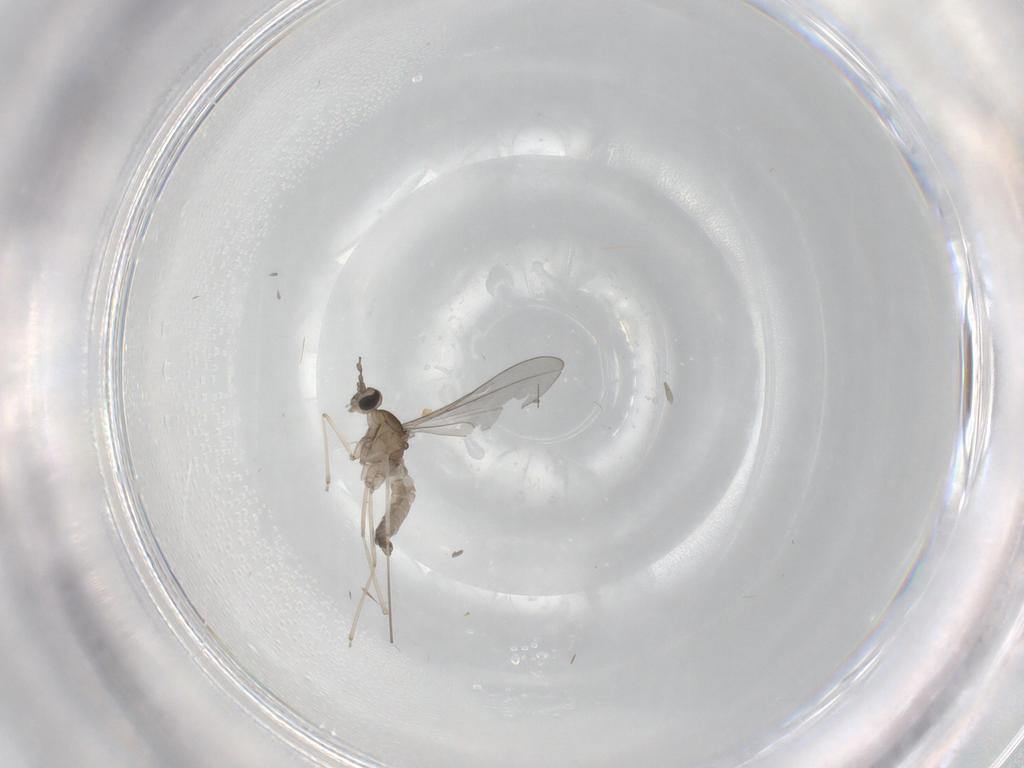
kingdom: Animalia
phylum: Arthropoda
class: Insecta
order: Diptera
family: Cecidomyiidae
